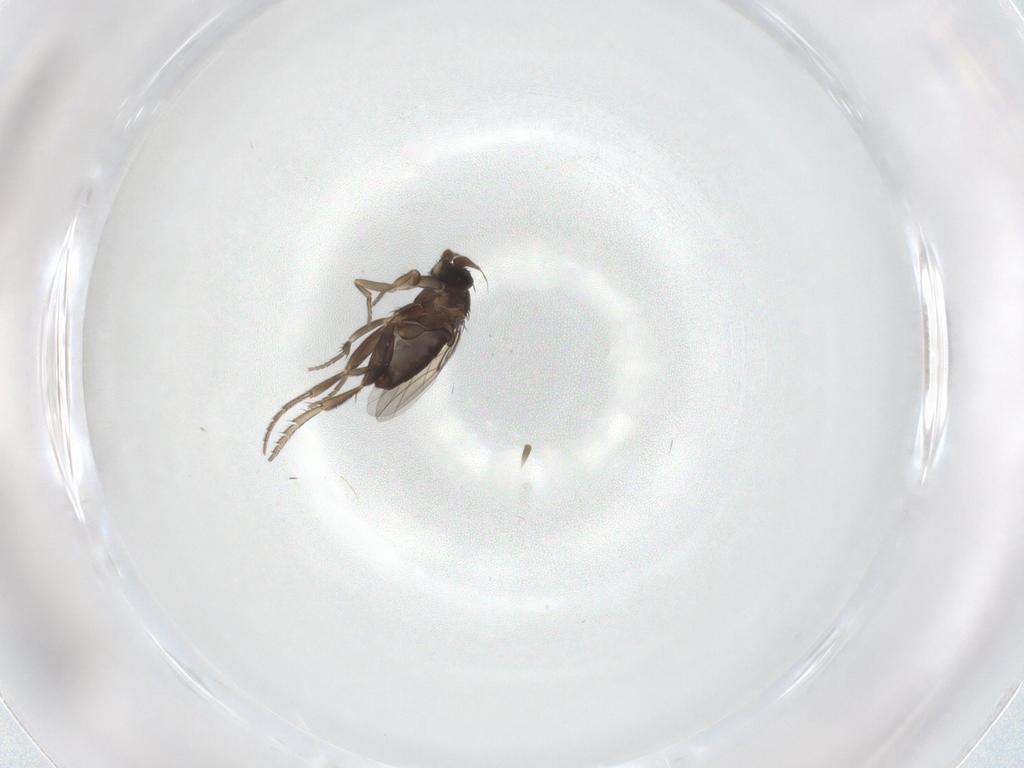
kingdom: Animalia
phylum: Arthropoda
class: Insecta
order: Diptera
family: Phoridae
